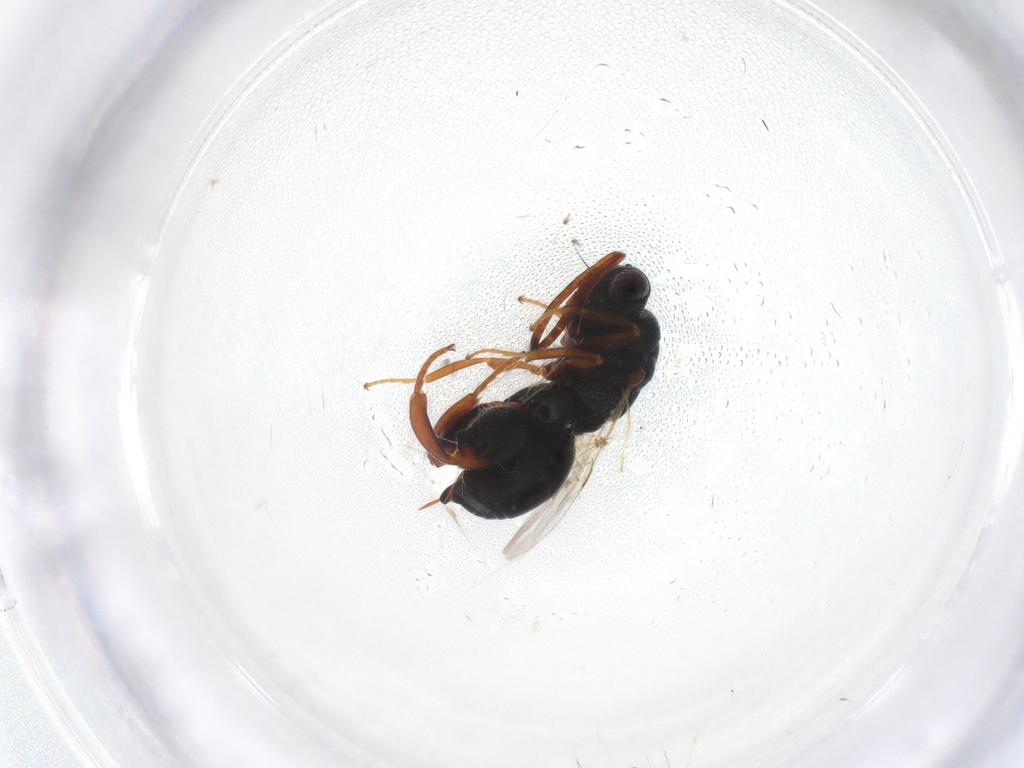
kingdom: Animalia
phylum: Arthropoda
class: Insecta
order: Hymenoptera
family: Chalcididae
